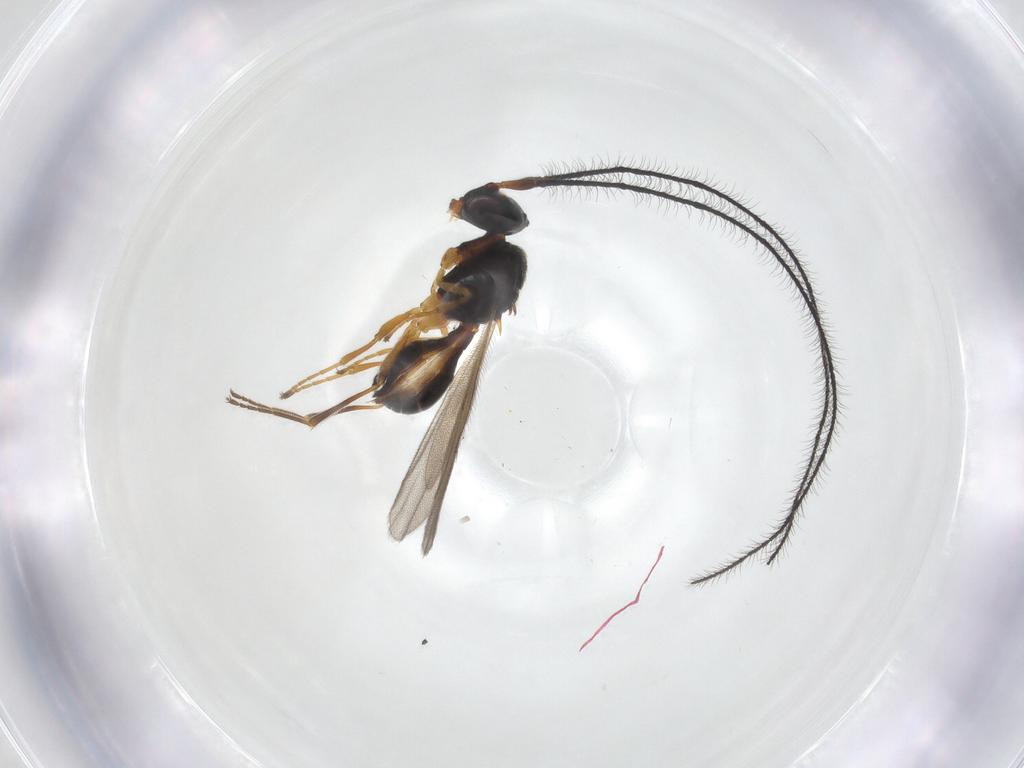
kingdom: Animalia
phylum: Arthropoda
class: Insecta
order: Hymenoptera
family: Scelionidae
